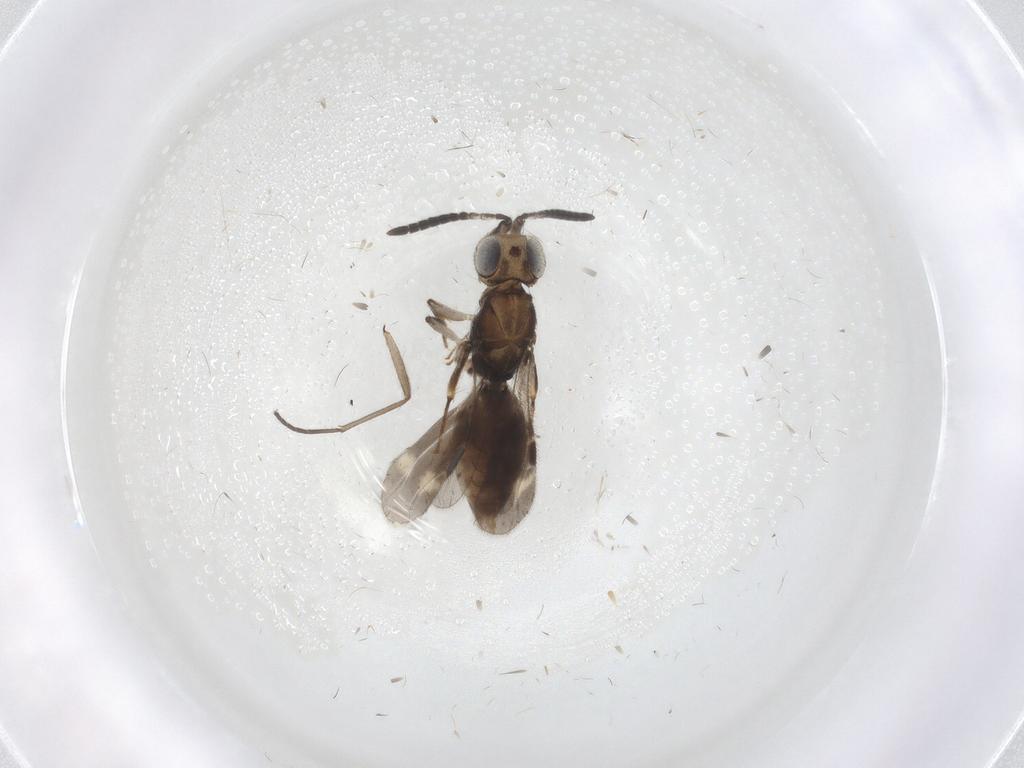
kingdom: Animalia
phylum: Arthropoda
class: Insecta
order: Hymenoptera
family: Megaspilidae
